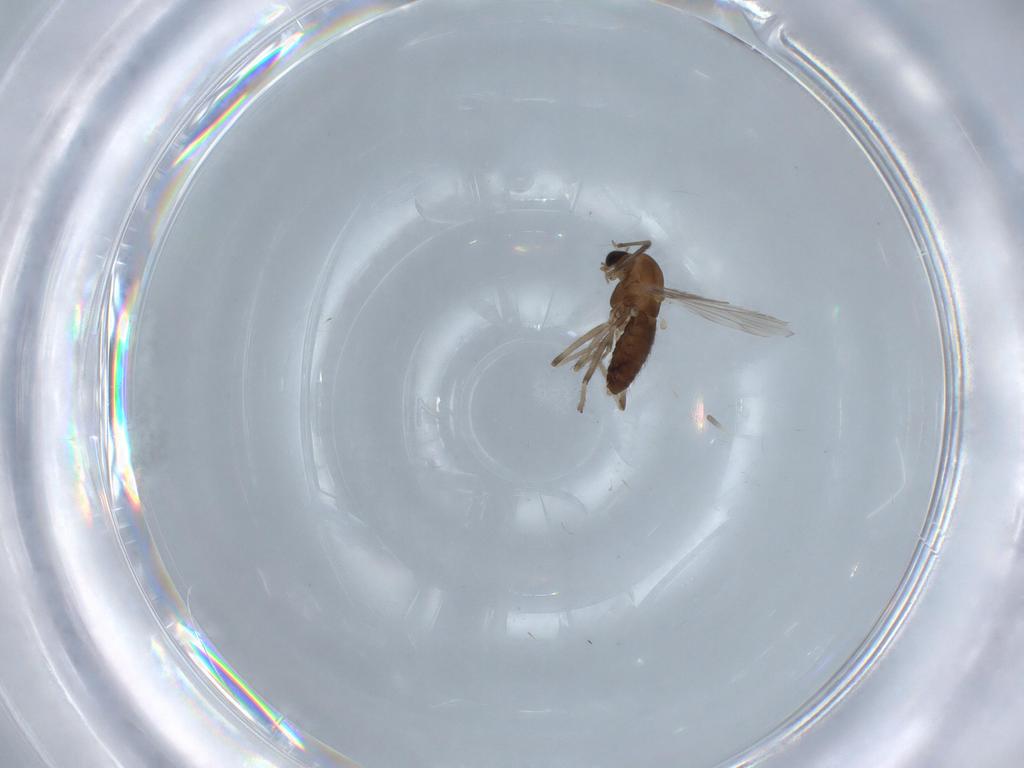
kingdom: Animalia
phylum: Arthropoda
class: Insecta
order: Diptera
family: Chironomidae
